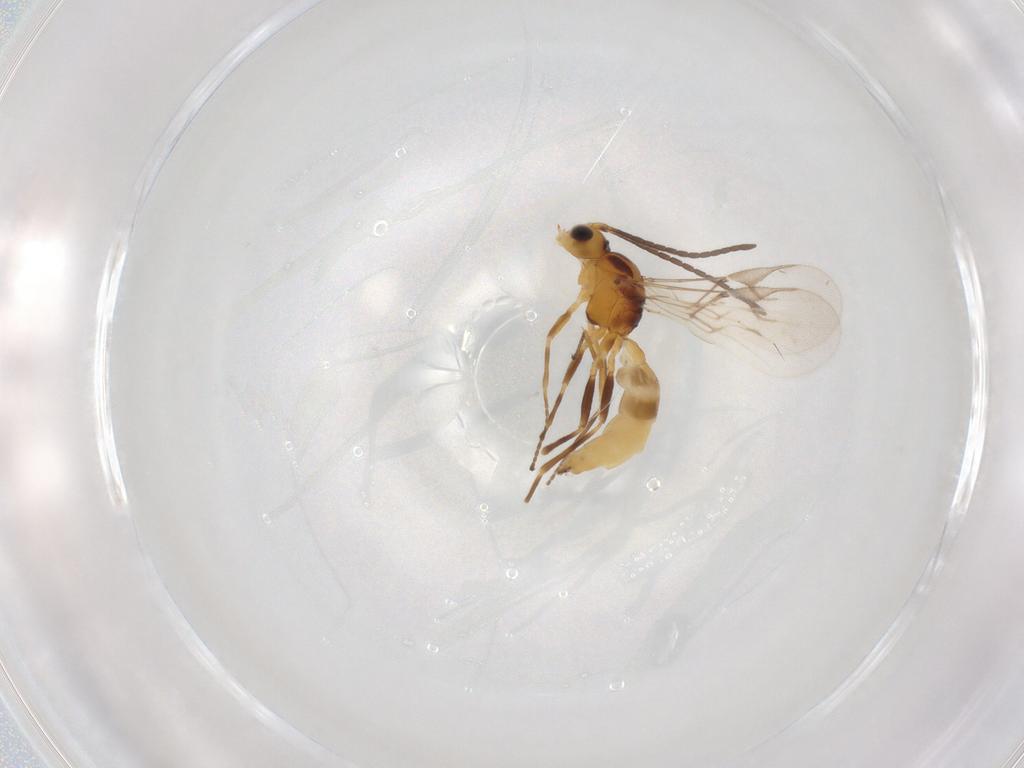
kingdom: Animalia
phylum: Arthropoda
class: Insecta
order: Hymenoptera
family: Braconidae
